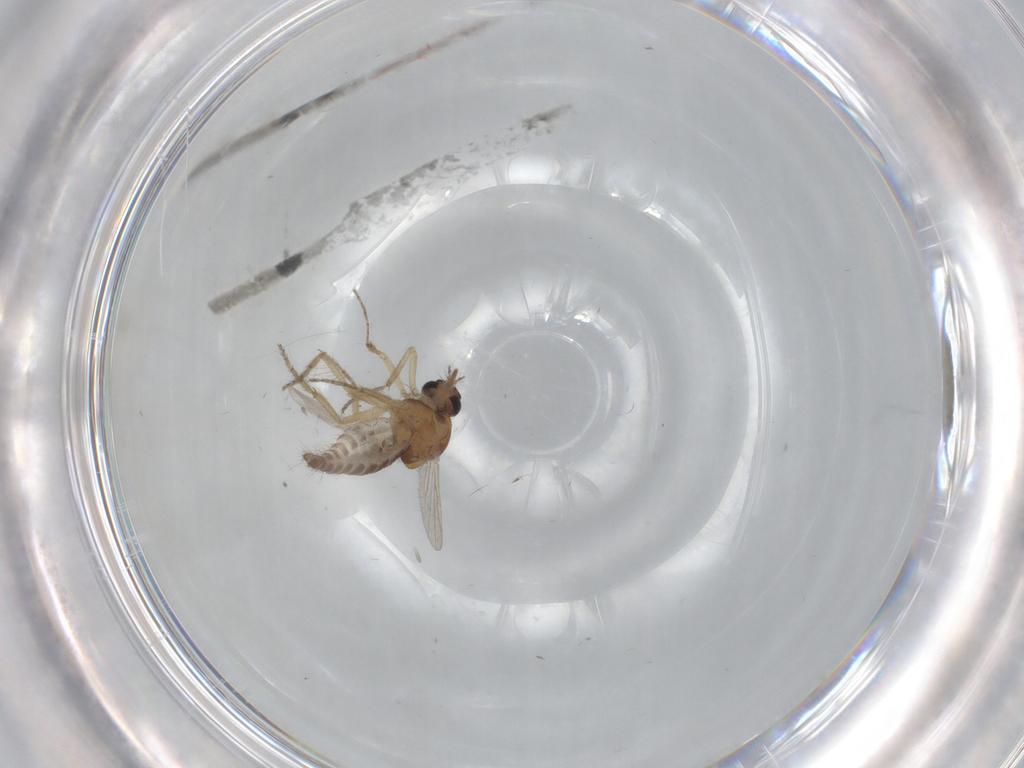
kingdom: Animalia
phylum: Arthropoda
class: Insecta
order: Diptera
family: Ceratopogonidae
